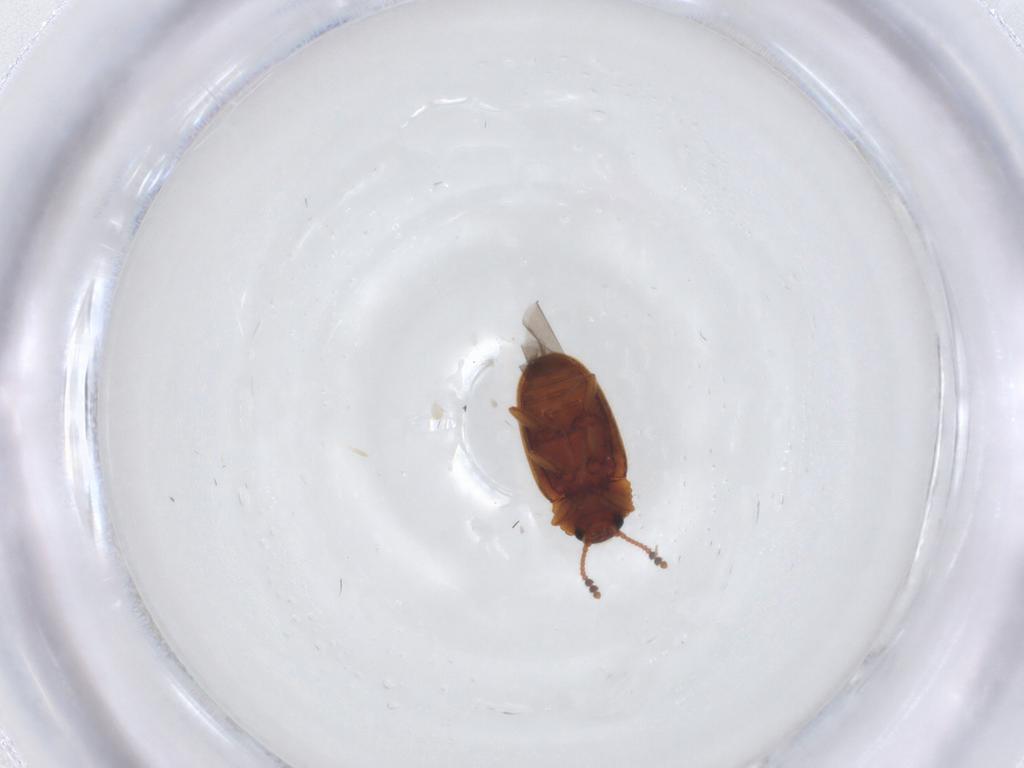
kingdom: Animalia
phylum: Arthropoda
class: Insecta
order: Coleoptera
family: Erotylidae
